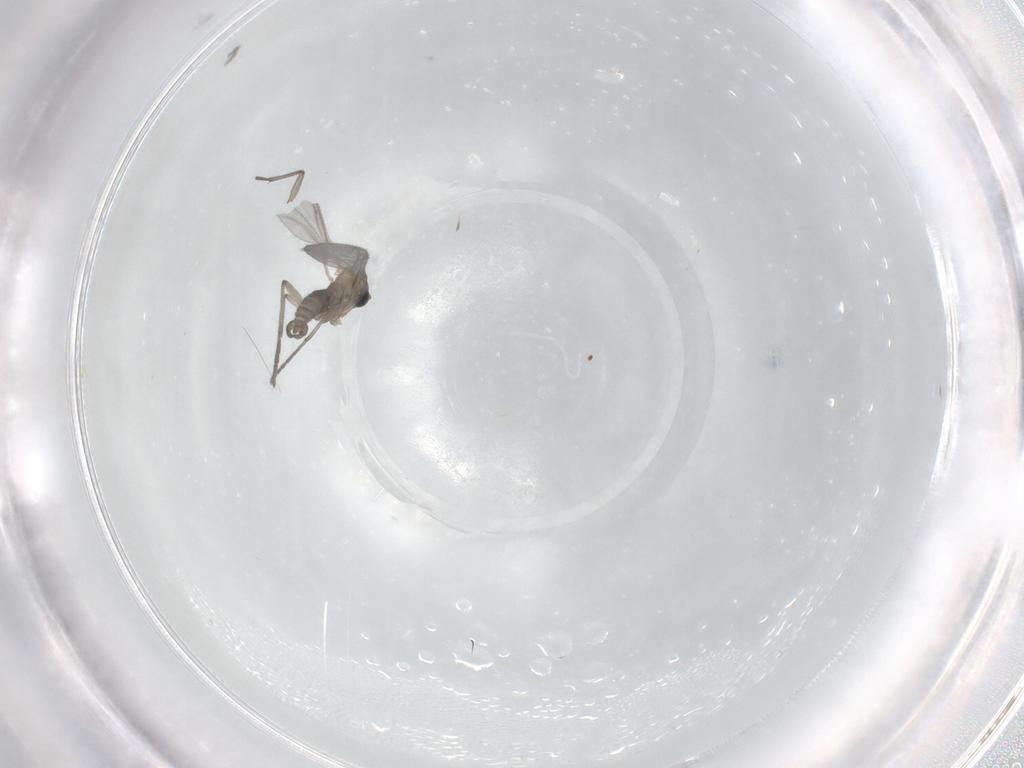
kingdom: Animalia
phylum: Arthropoda
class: Insecta
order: Diptera
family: Sciaridae
